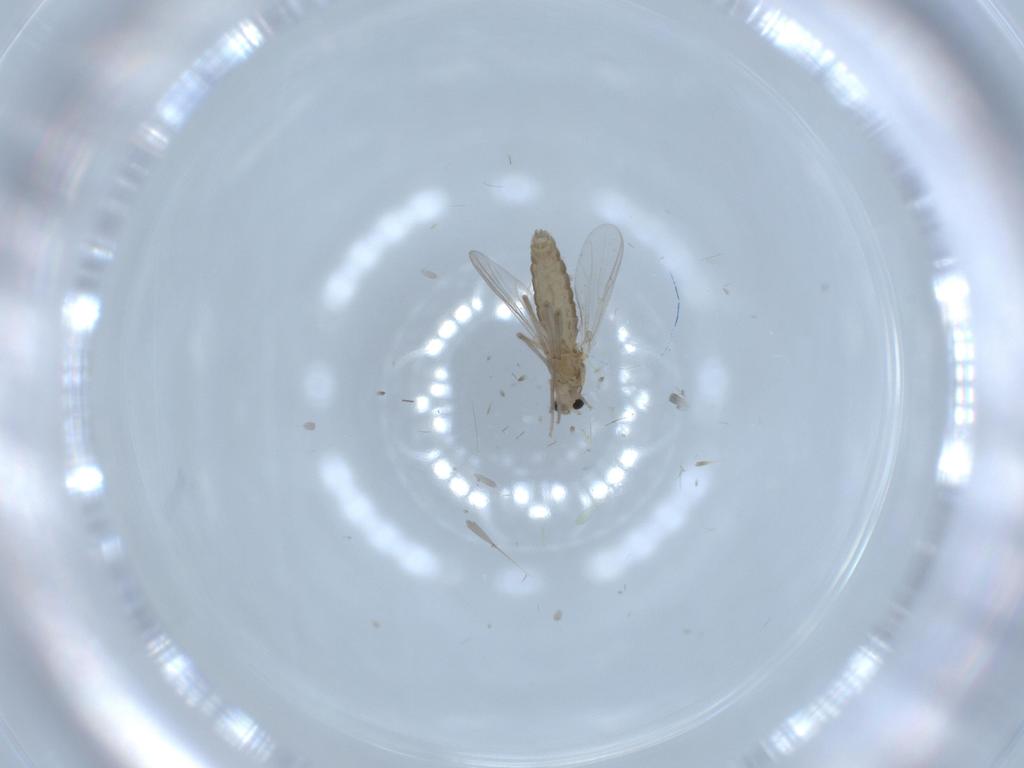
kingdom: Animalia
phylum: Arthropoda
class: Insecta
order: Diptera
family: Chironomidae
